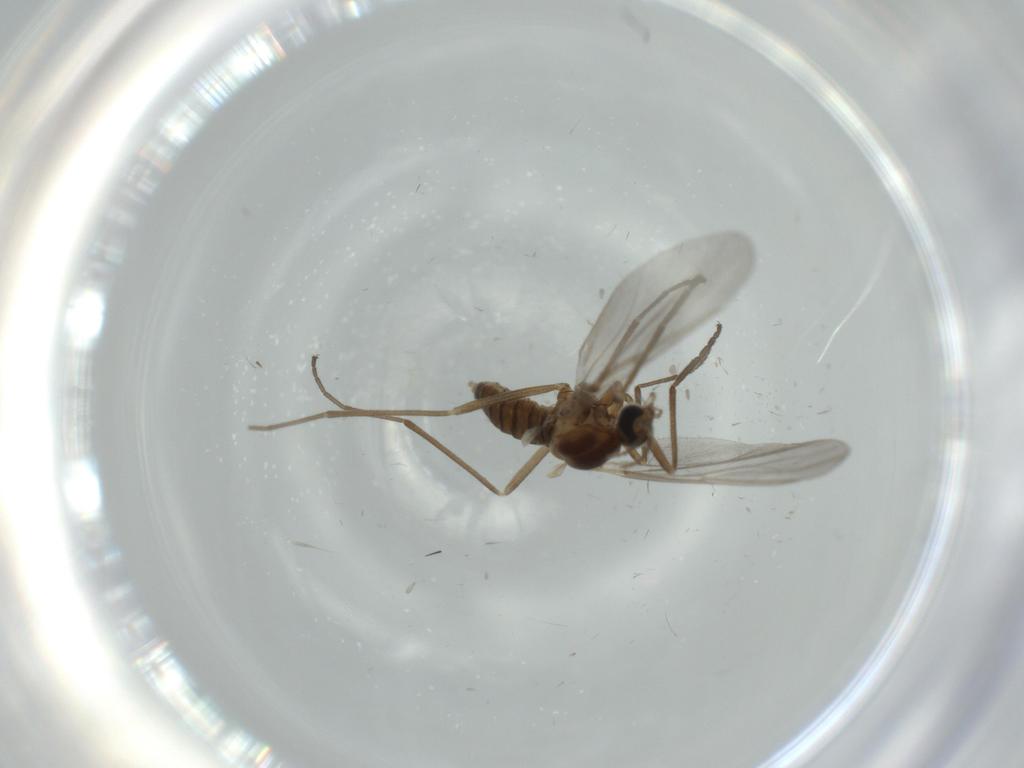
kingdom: Animalia
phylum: Arthropoda
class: Insecta
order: Diptera
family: Cecidomyiidae
